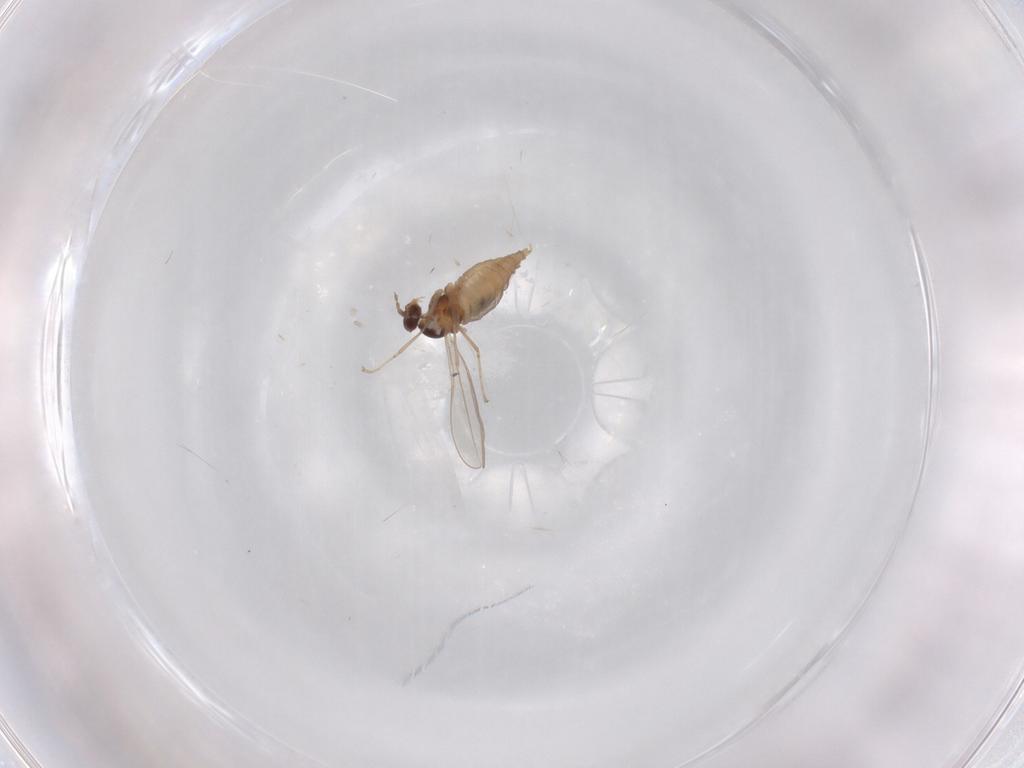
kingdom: Animalia
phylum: Arthropoda
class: Insecta
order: Diptera
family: Cecidomyiidae
